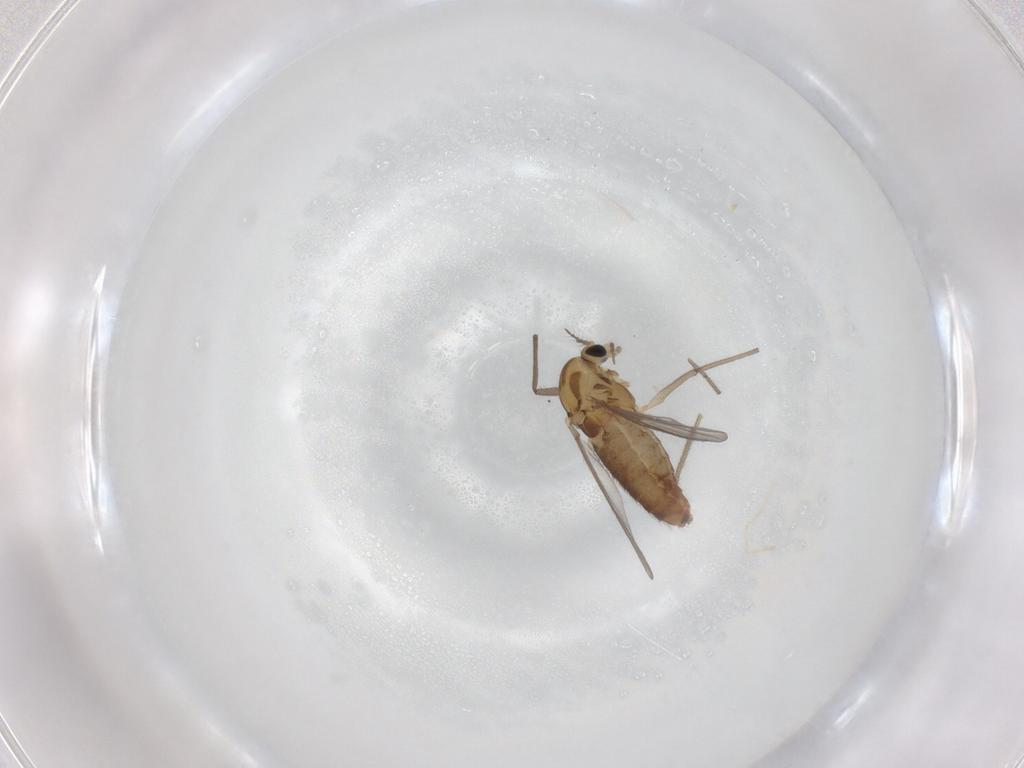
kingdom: Animalia
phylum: Arthropoda
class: Insecta
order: Diptera
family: Chironomidae
